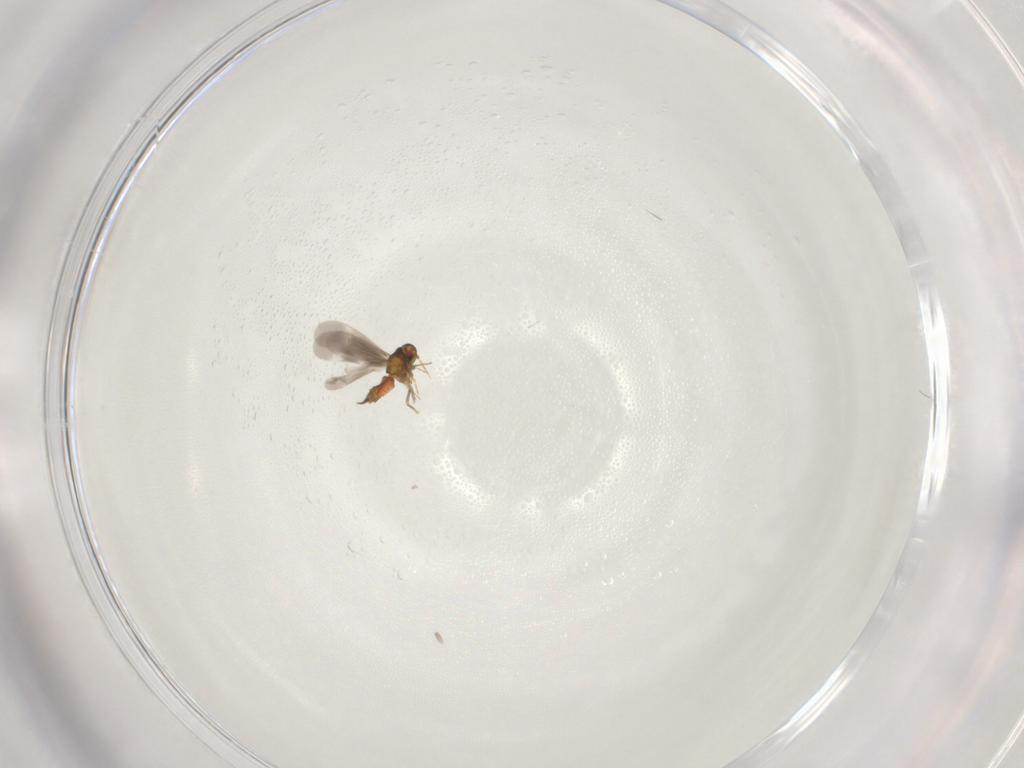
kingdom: Animalia
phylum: Arthropoda
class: Insecta
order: Hemiptera
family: Aleyrodidae
